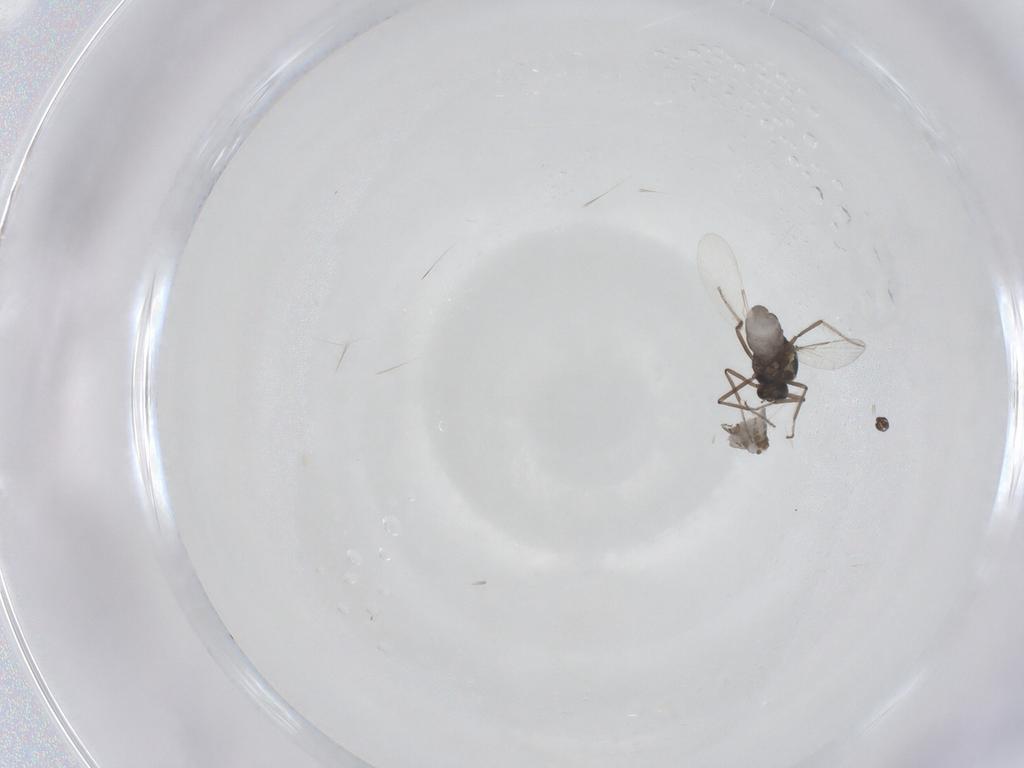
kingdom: Animalia
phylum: Arthropoda
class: Insecta
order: Diptera
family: Ceratopogonidae
